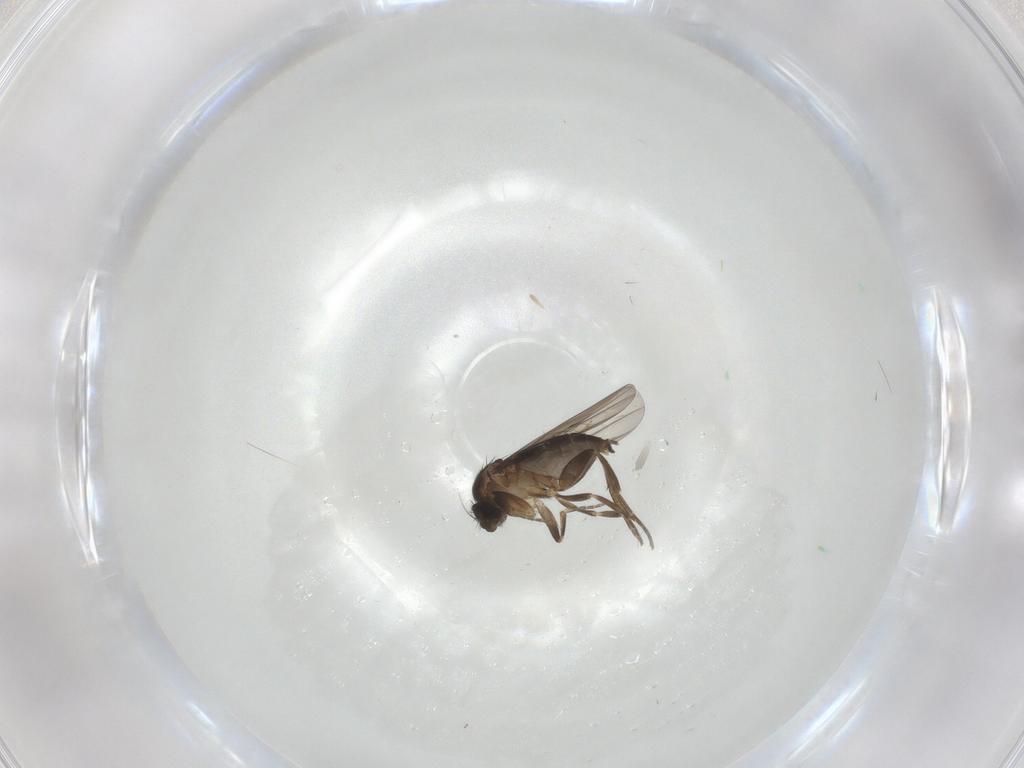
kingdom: Animalia
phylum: Arthropoda
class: Insecta
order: Diptera
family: Phoridae
